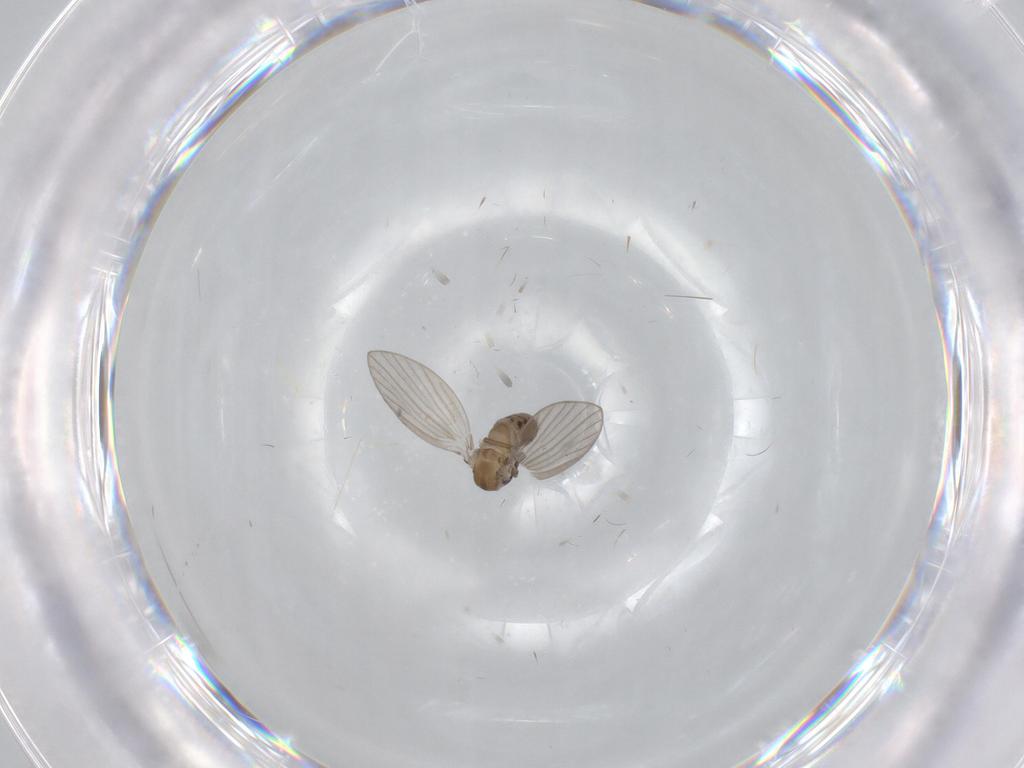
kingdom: Animalia
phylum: Arthropoda
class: Insecta
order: Diptera
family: Psychodidae
